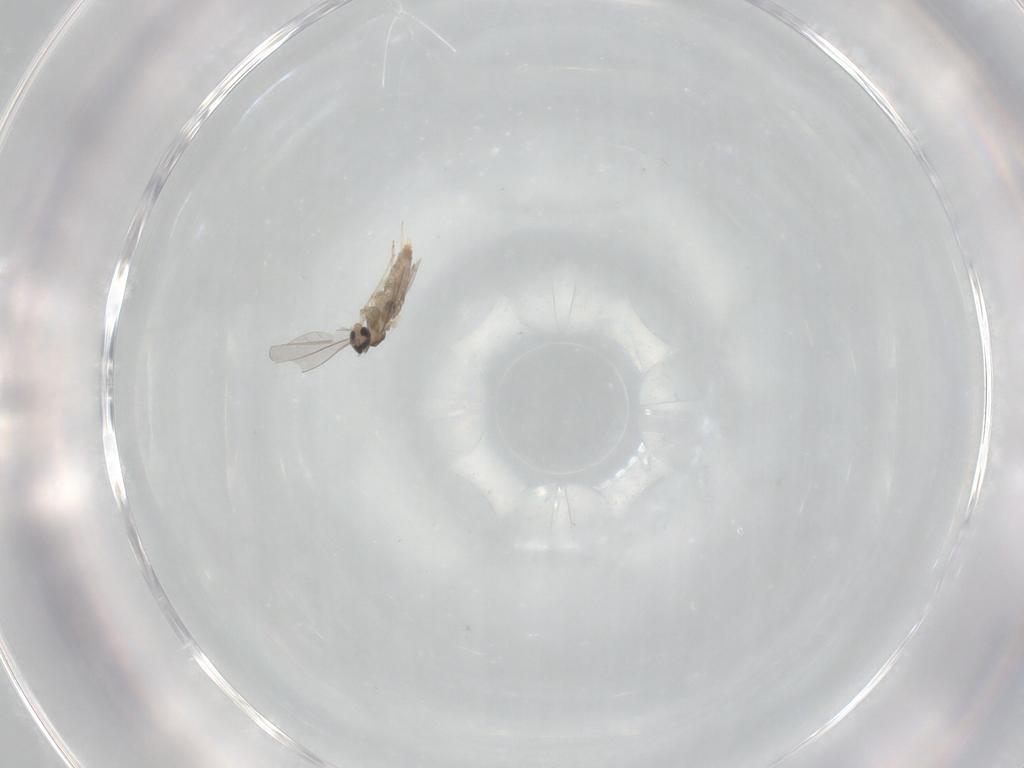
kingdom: Animalia
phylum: Arthropoda
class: Insecta
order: Diptera
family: Cecidomyiidae
